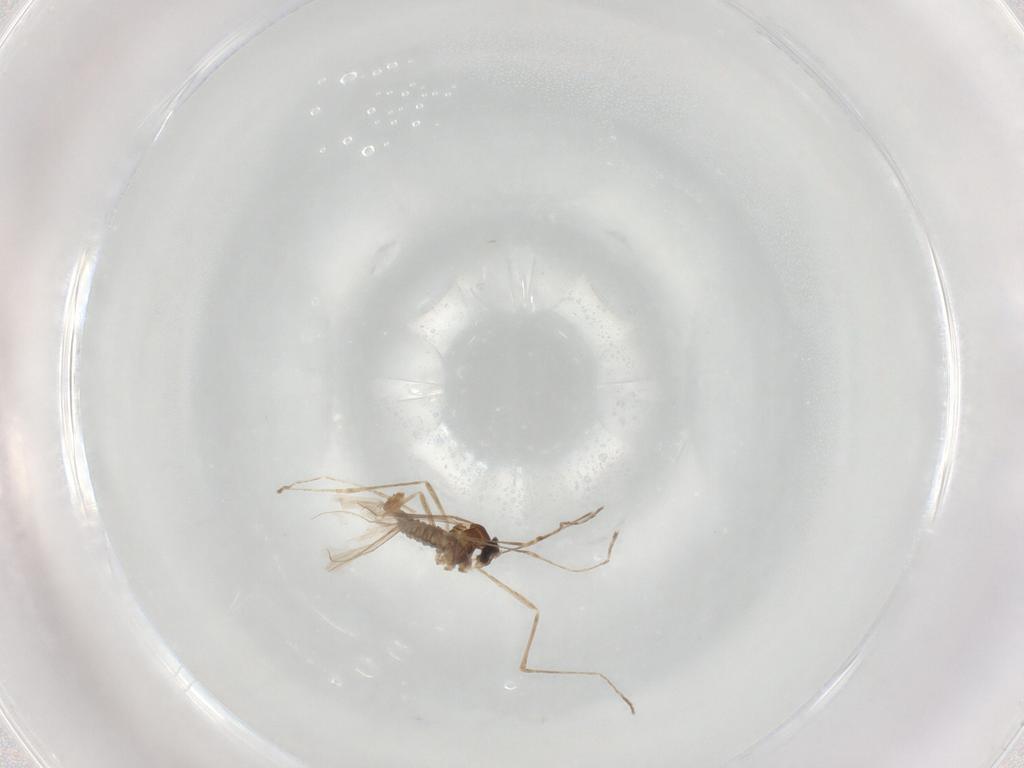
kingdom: Animalia
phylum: Arthropoda
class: Insecta
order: Diptera
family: Cecidomyiidae
